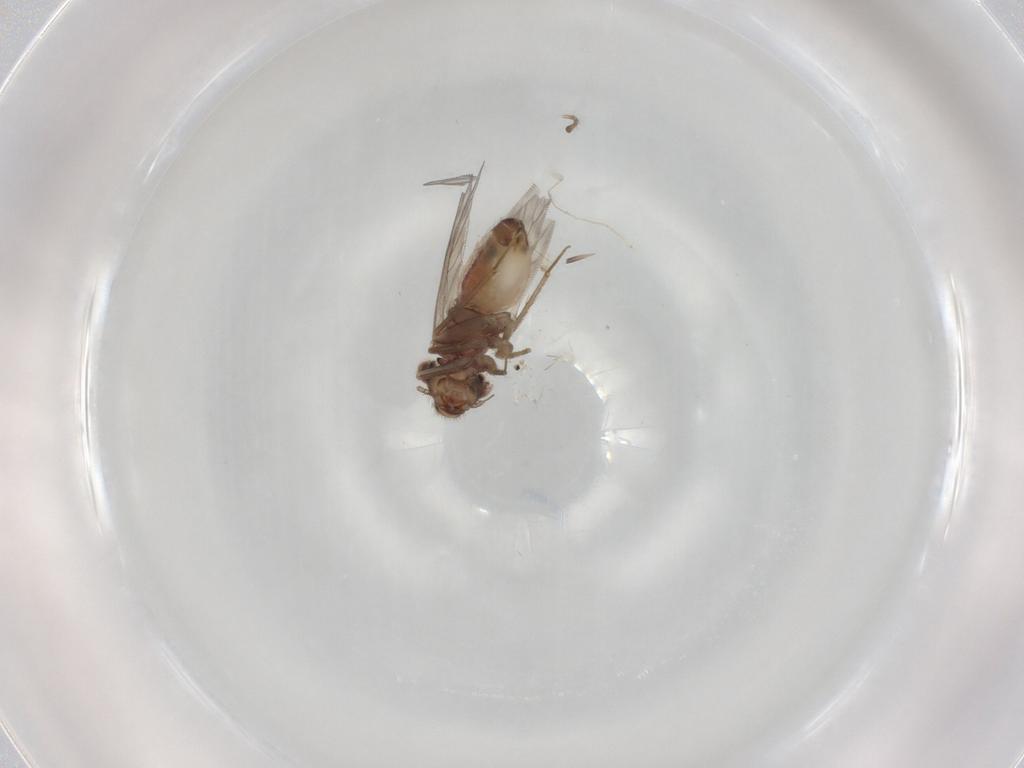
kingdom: Animalia
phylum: Arthropoda
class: Insecta
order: Psocodea
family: Lepidopsocidae
